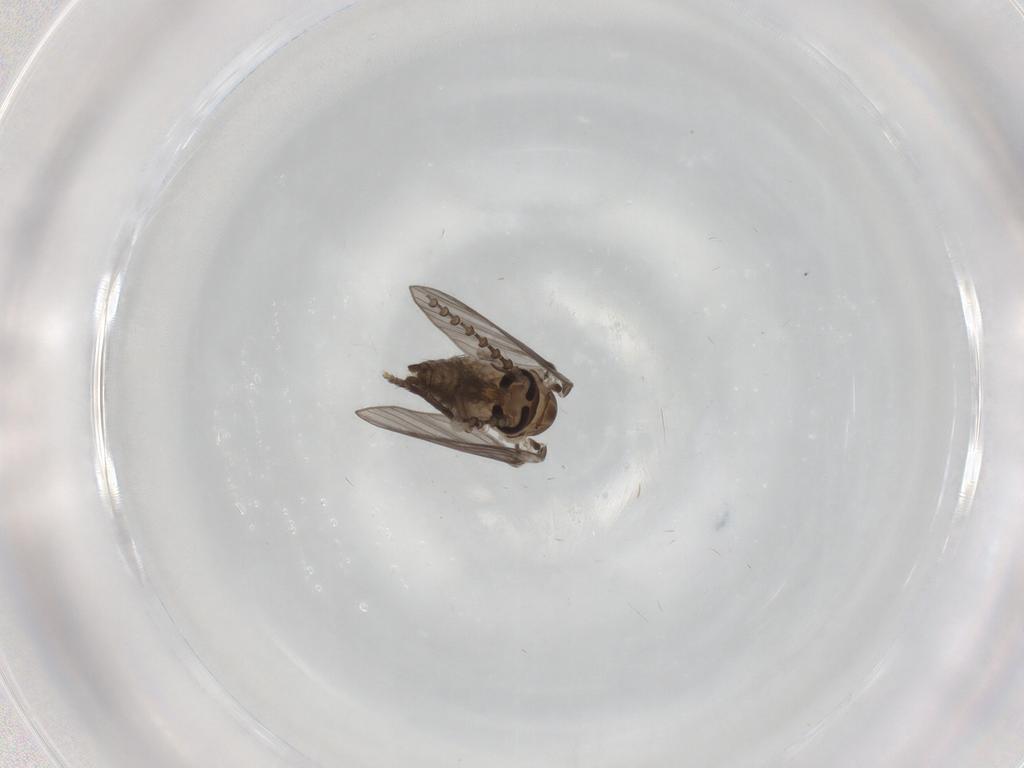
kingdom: Animalia
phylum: Arthropoda
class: Insecta
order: Diptera
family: Psychodidae
